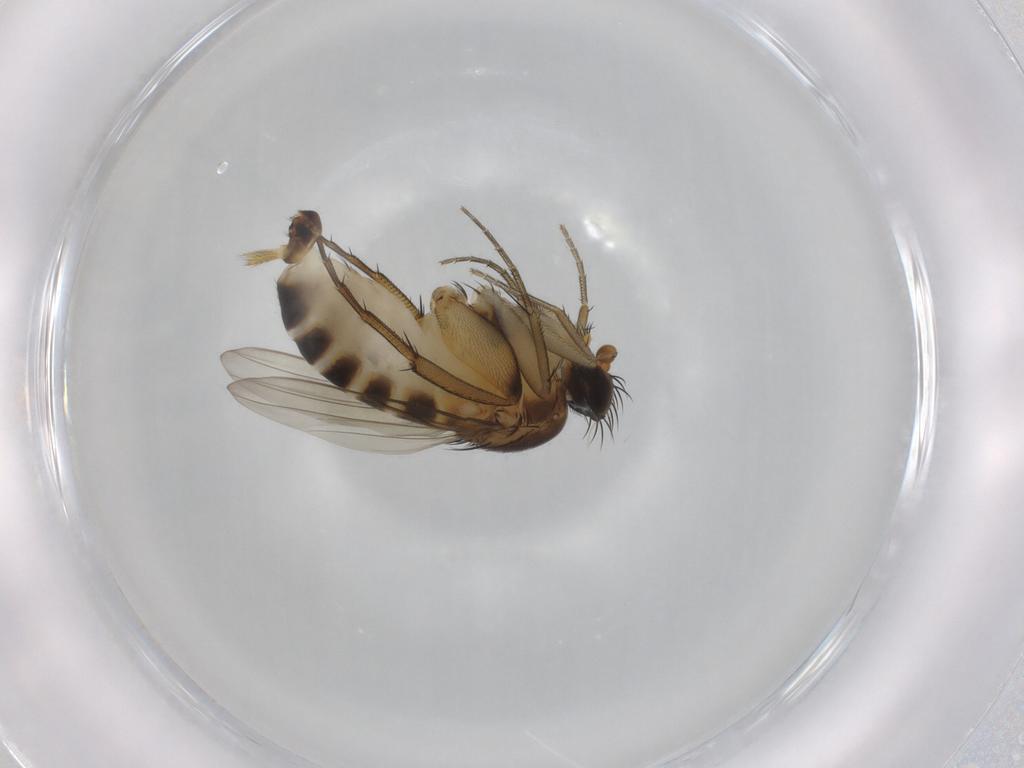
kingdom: Animalia
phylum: Arthropoda
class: Insecta
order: Diptera
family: Phoridae
